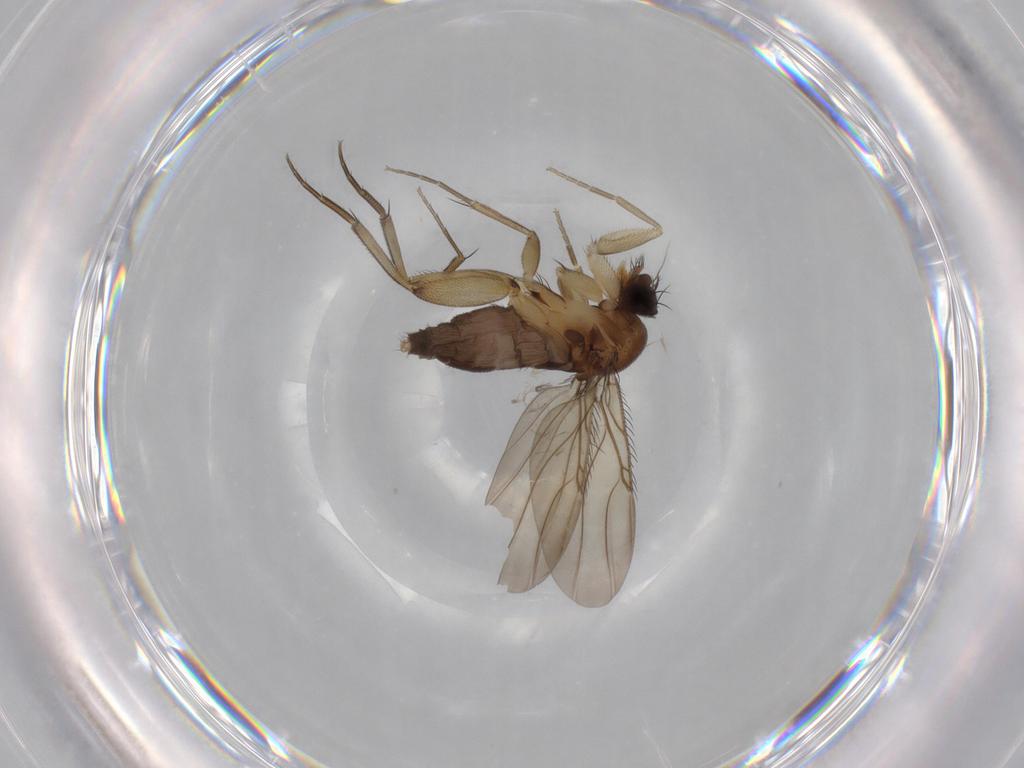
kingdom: Animalia
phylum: Arthropoda
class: Insecta
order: Diptera
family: Phoridae
